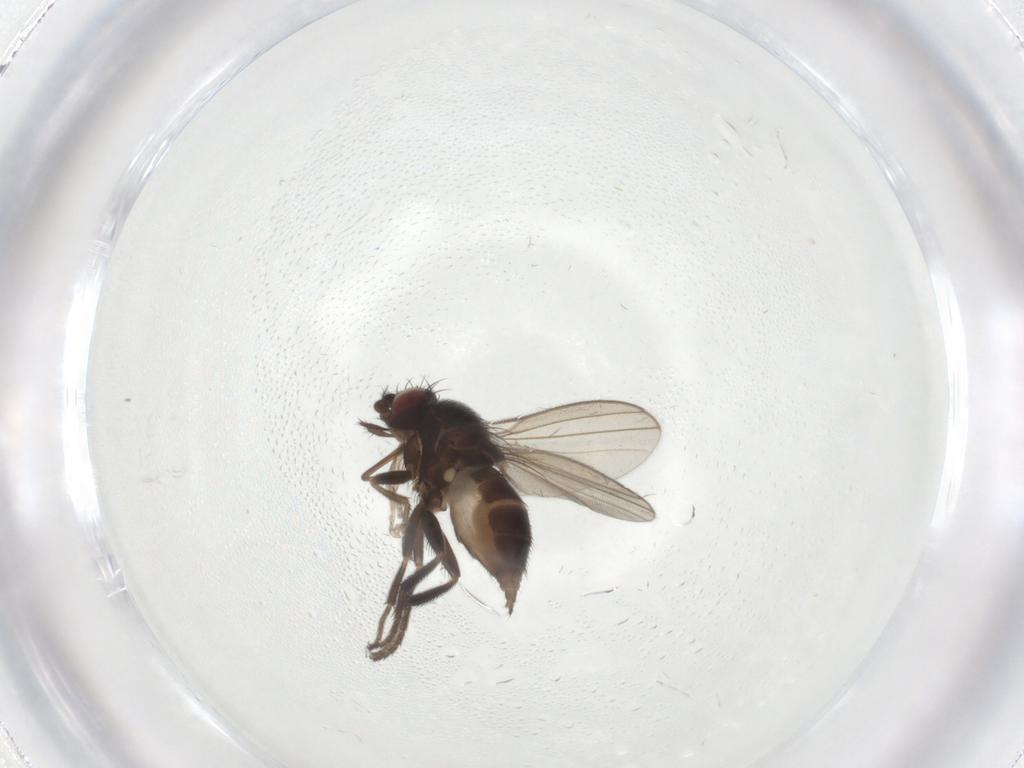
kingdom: Animalia
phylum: Arthropoda
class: Insecta
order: Diptera
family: Milichiidae
